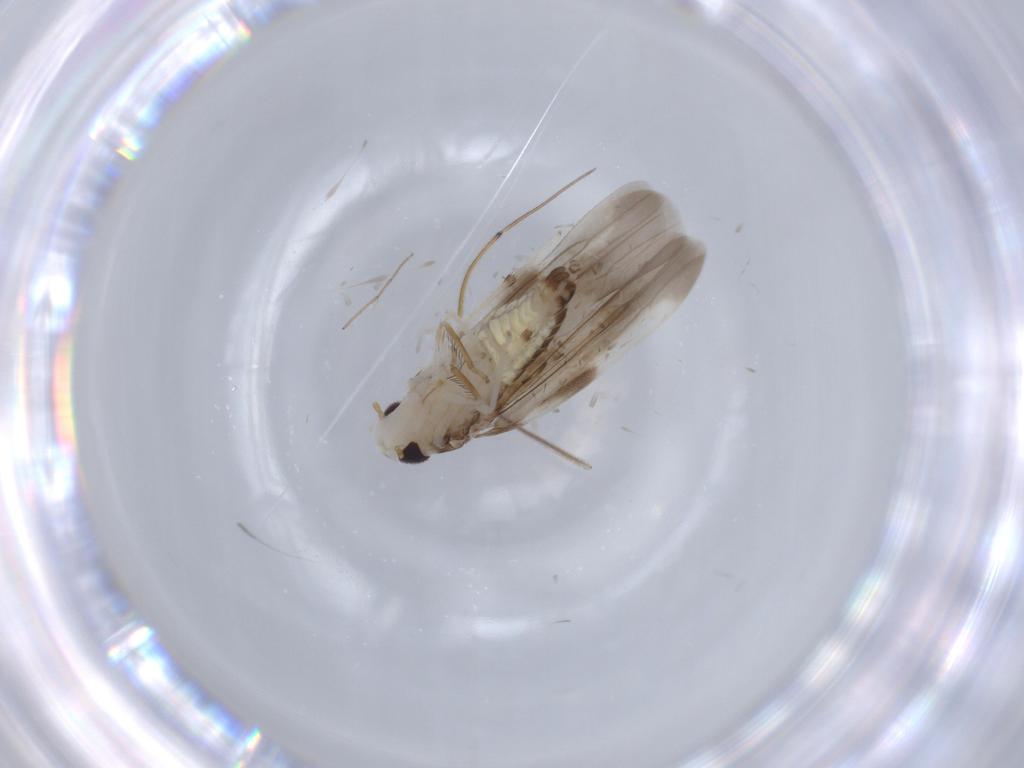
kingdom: Animalia
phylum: Arthropoda
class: Insecta
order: Hemiptera
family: Cicadellidae
